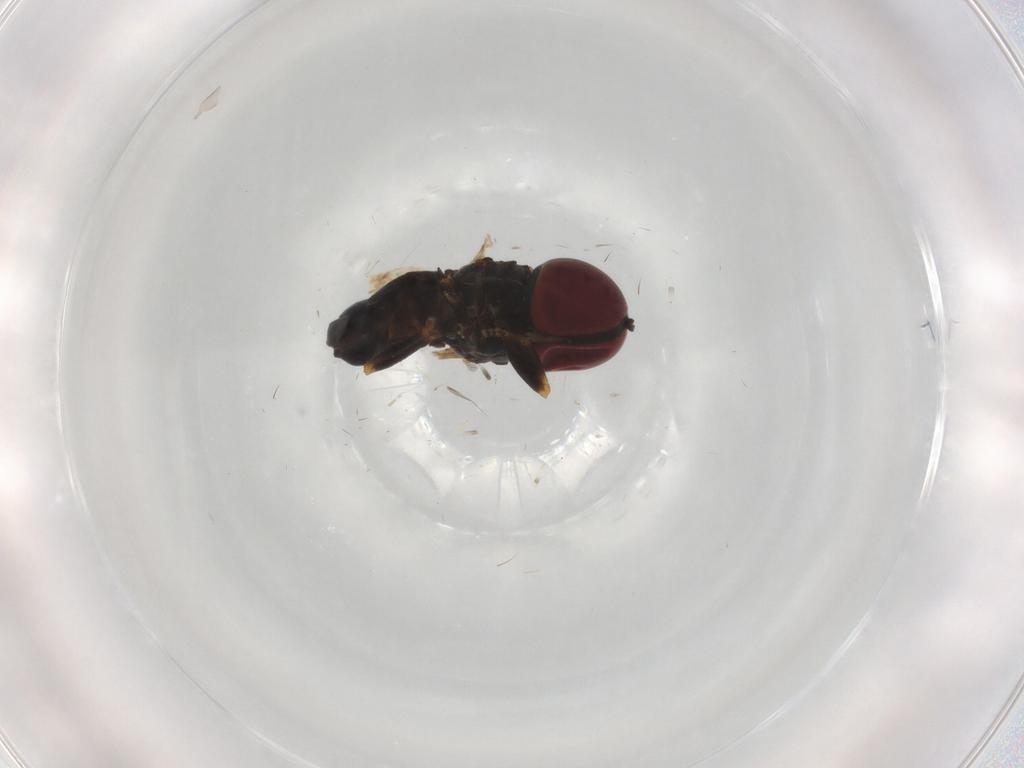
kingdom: Animalia
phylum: Arthropoda
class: Insecta
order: Diptera
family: Pipunculidae
